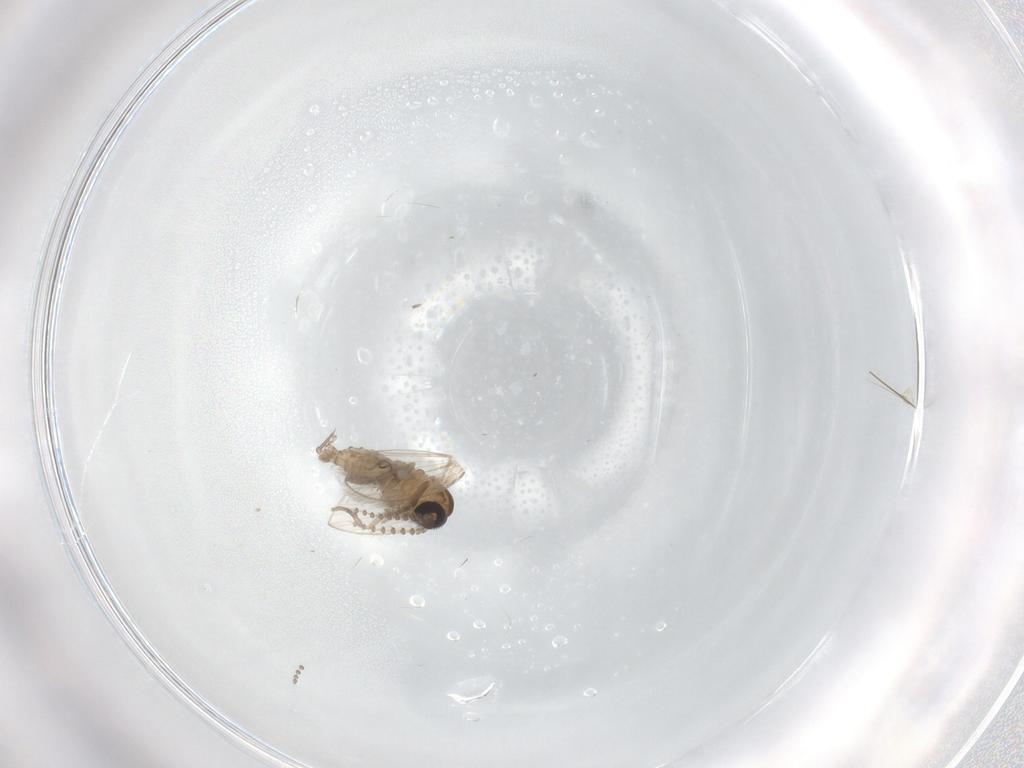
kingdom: Animalia
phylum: Arthropoda
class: Insecta
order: Diptera
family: Psychodidae
